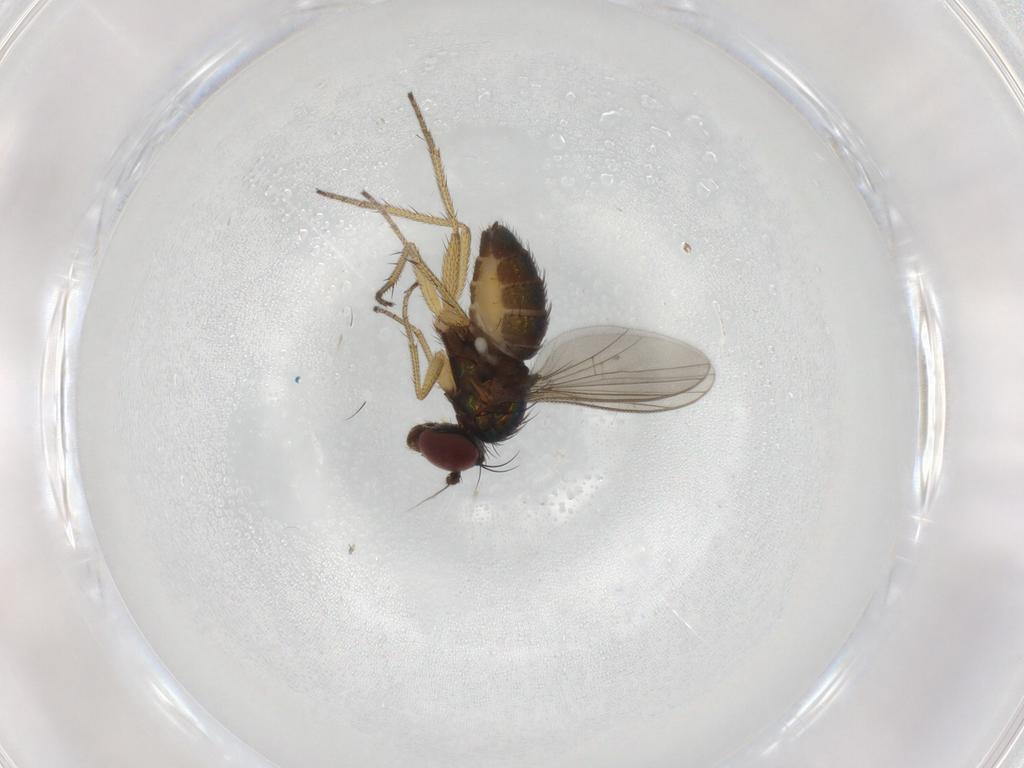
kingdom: Animalia
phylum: Arthropoda
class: Insecta
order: Diptera
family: Dolichopodidae
